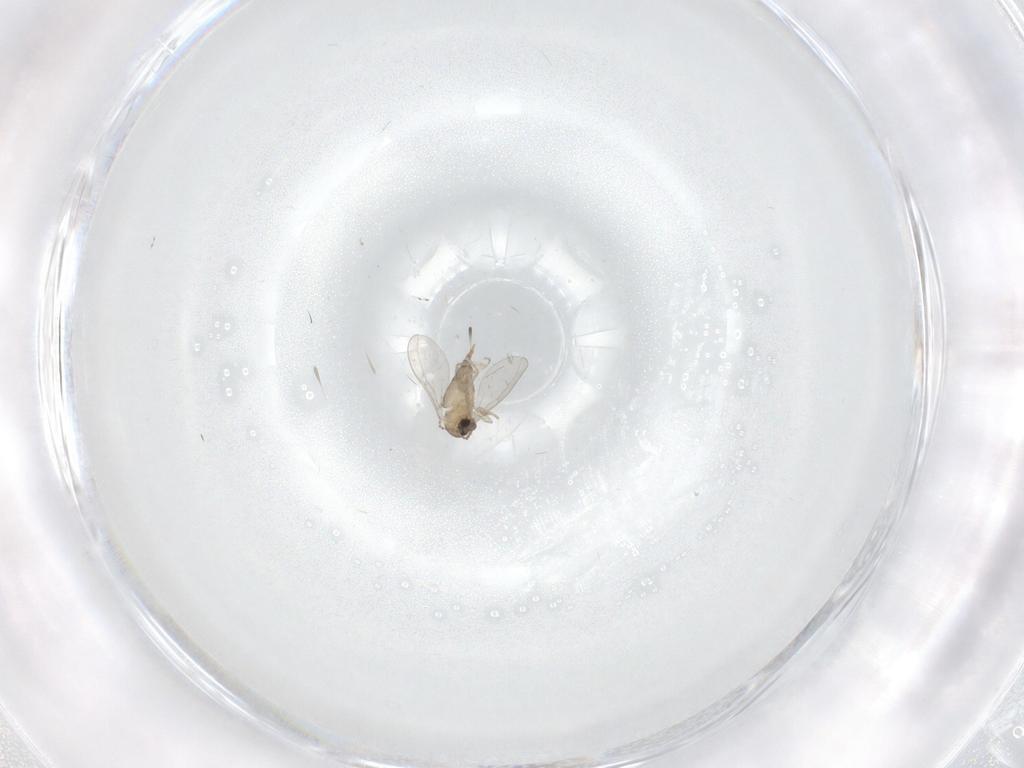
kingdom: Animalia
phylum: Arthropoda
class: Insecta
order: Diptera
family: Cecidomyiidae
